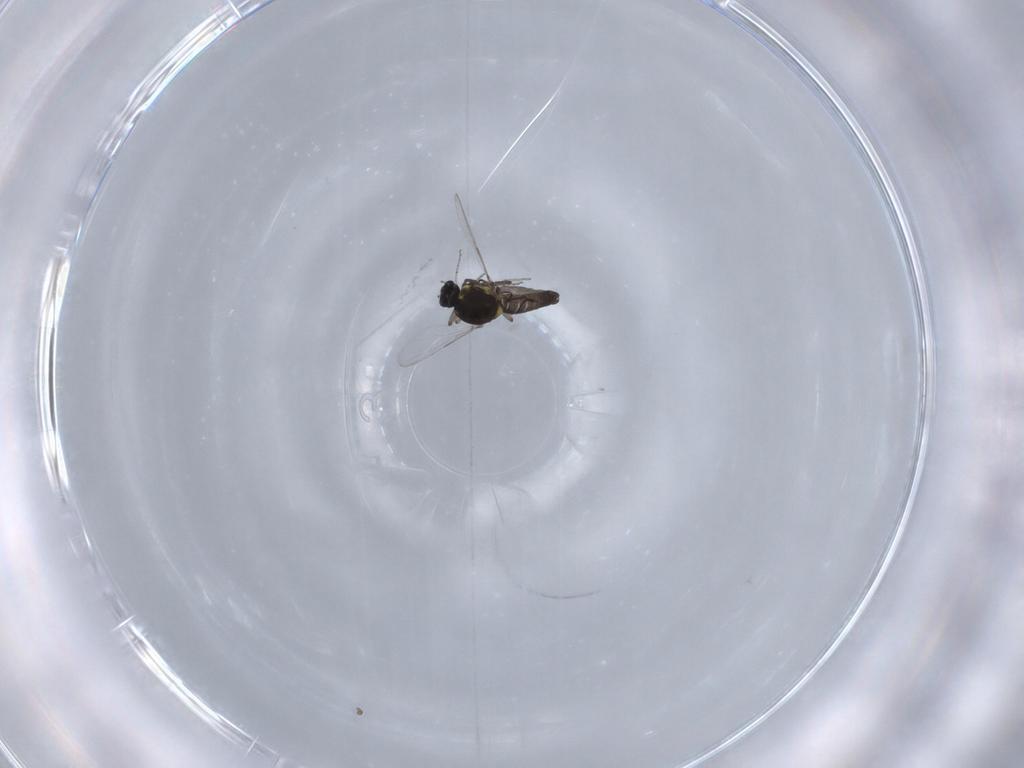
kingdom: Animalia
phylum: Arthropoda
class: Insecta
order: Diptera
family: Ceratopogonidae
